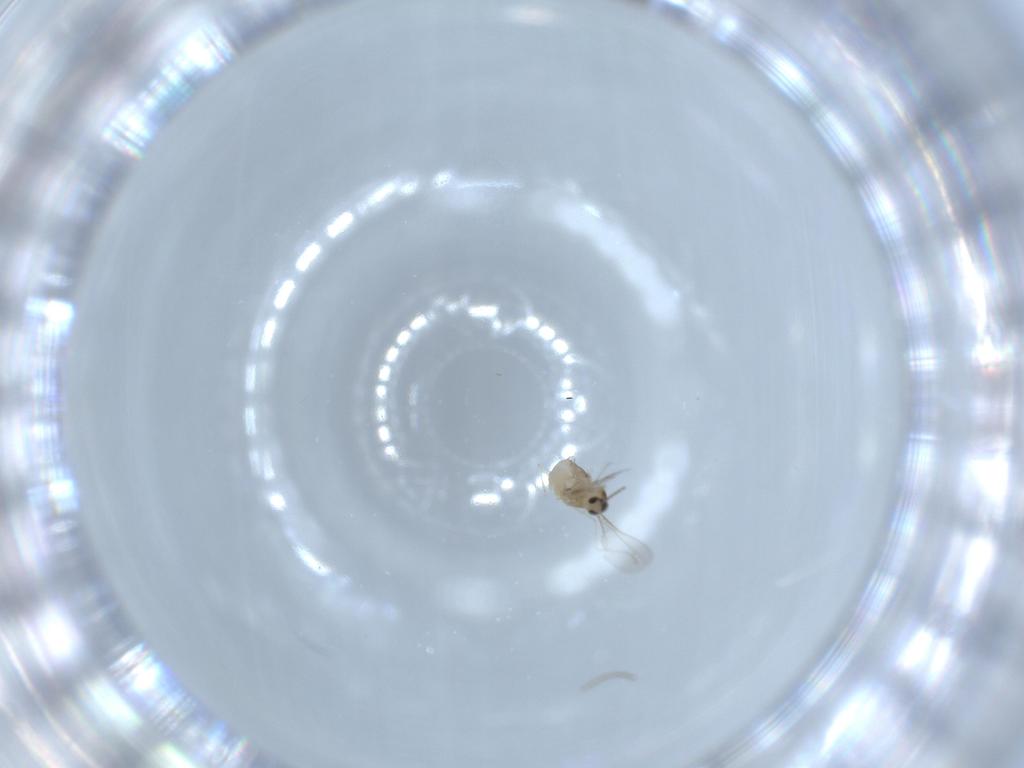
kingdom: Animalia
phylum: Arthropoda
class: Insecta
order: Diptera
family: Cecidomyiidae
